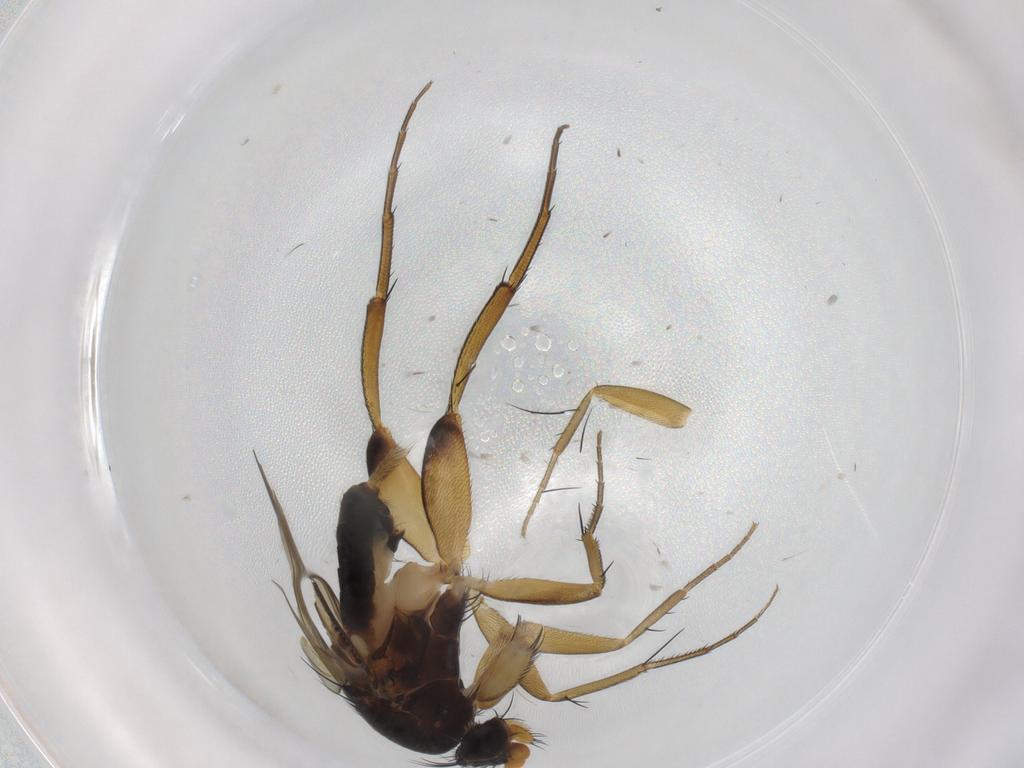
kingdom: Animalia
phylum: Arthropoda
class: Insecta
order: Diptera
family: Phoridae
